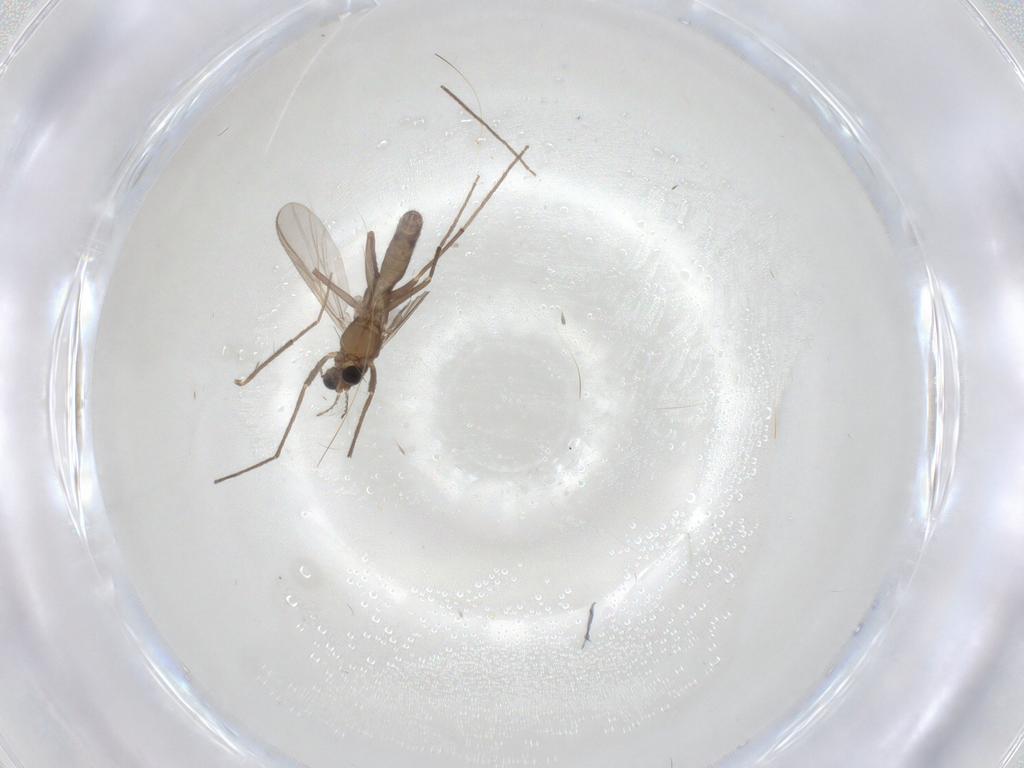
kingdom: Animalia
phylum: Arthropoda
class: Insecta
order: Diptera
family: Chironomidae
